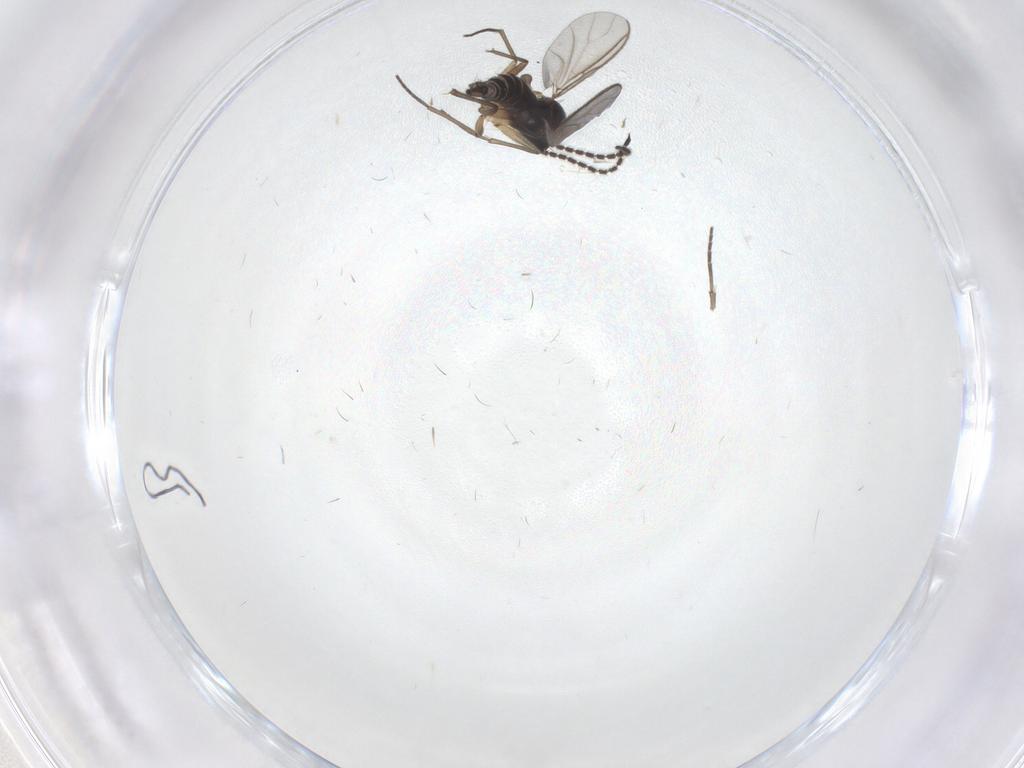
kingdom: Animalia
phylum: Arthropoda
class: Insecta
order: Diptera
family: Sciaridae
